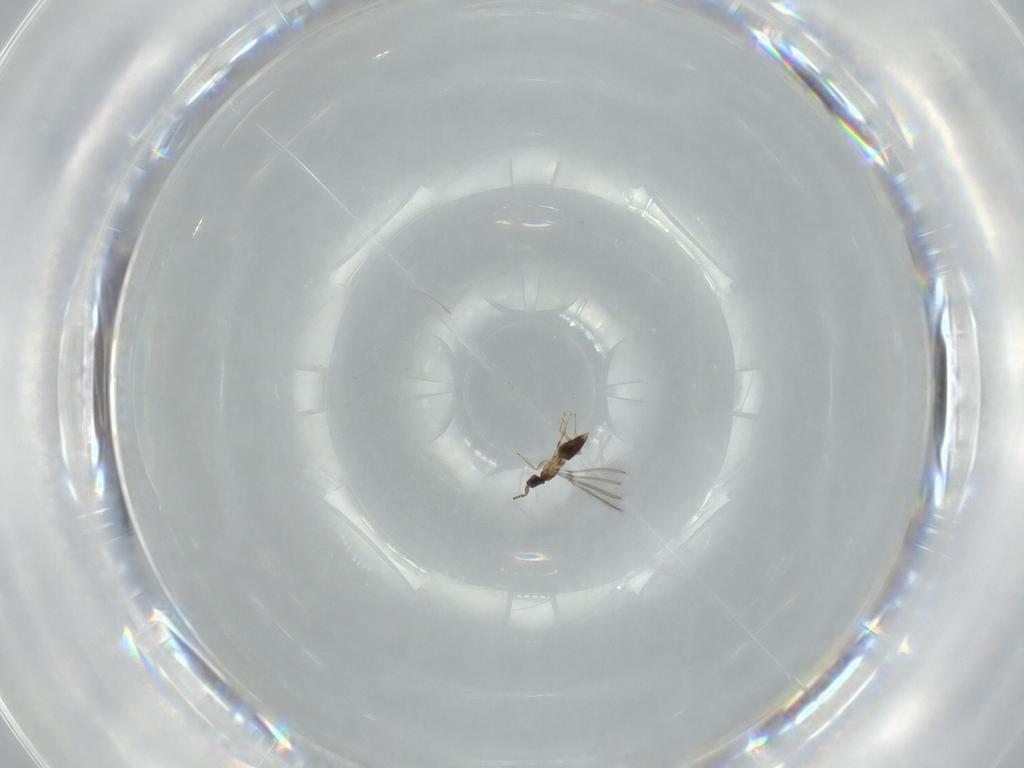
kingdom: Animalia
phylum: Arthropoda
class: Insecta
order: Hymenoptera
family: Mymaridae
